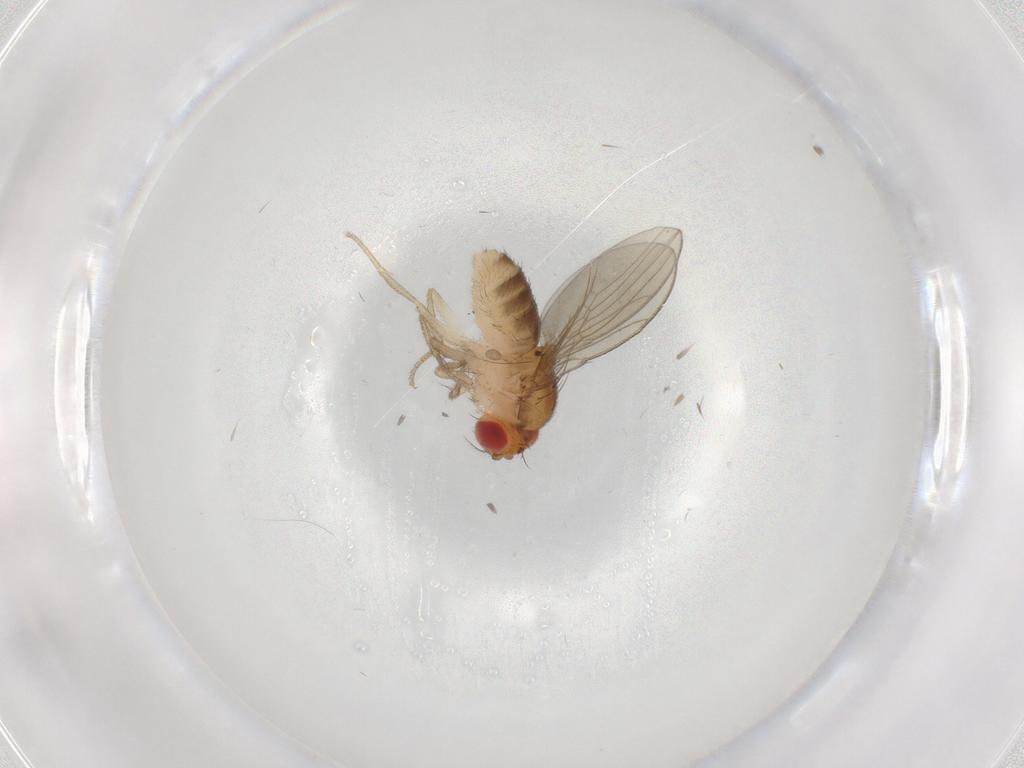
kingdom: Animalia
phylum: Arthropoda
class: Insecta
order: Diptera
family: Drosophilidae
